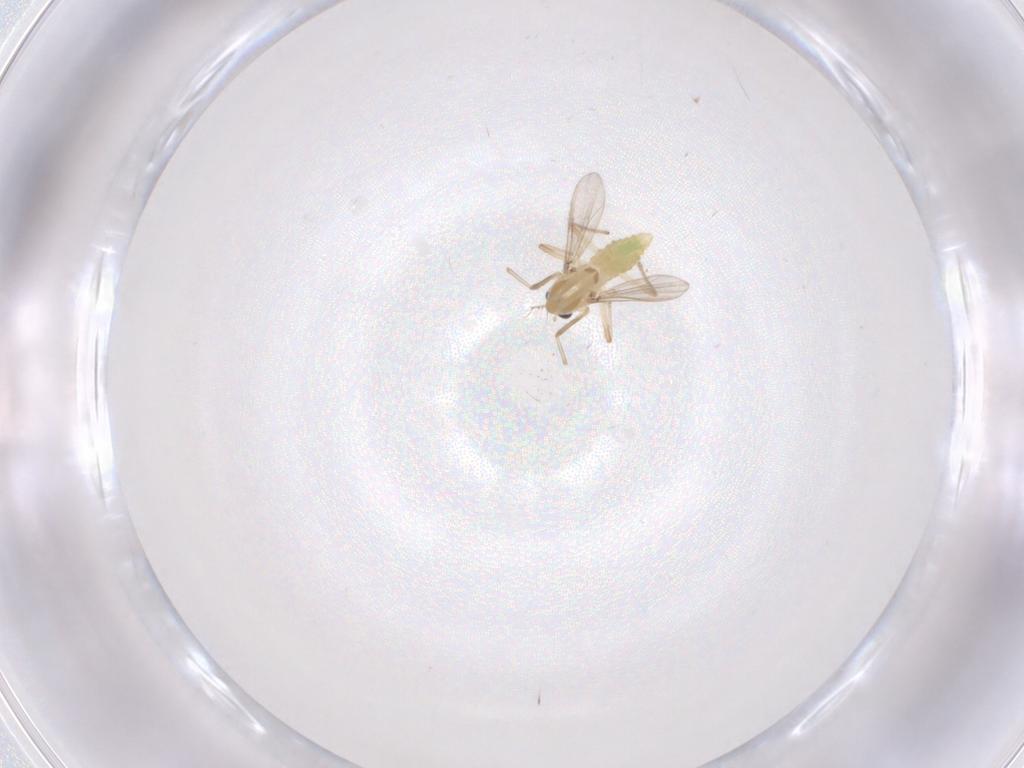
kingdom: Animalia
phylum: Arthropoda
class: Insecta
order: Diptera
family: Chironomidae
